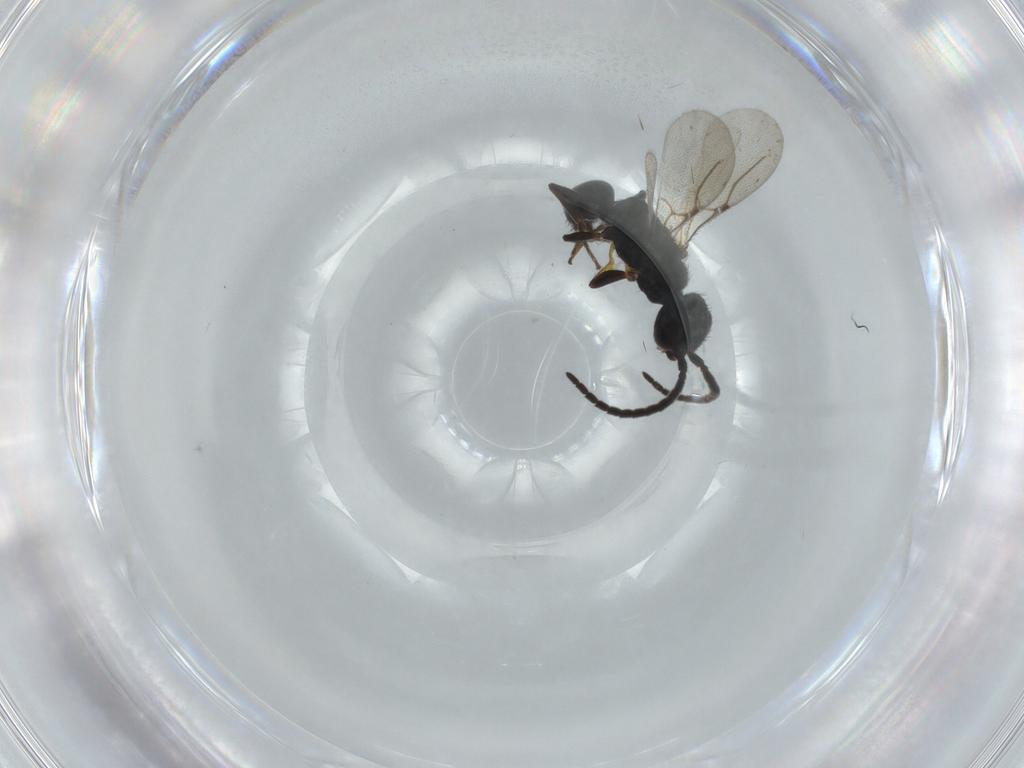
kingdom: Animalia
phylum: Arthropoda
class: Insecta
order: Hymenoptera
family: Bethylidae
